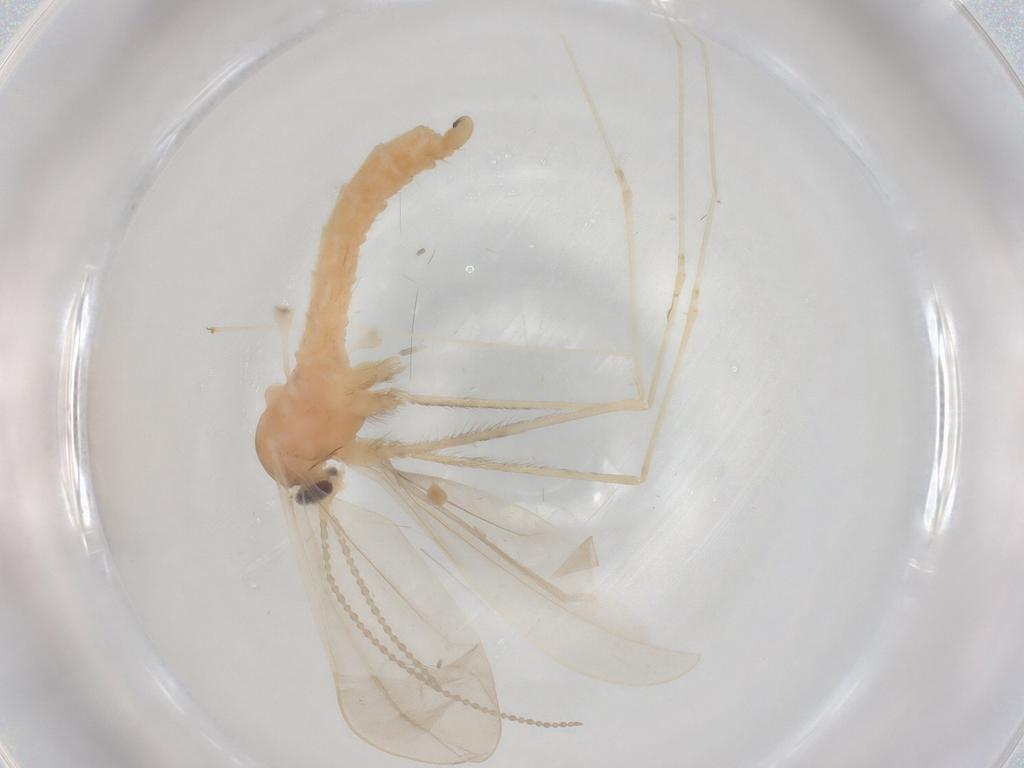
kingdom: Animalia
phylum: Arthropoda
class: Insecta
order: Diptera
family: Cecidomyiidae
